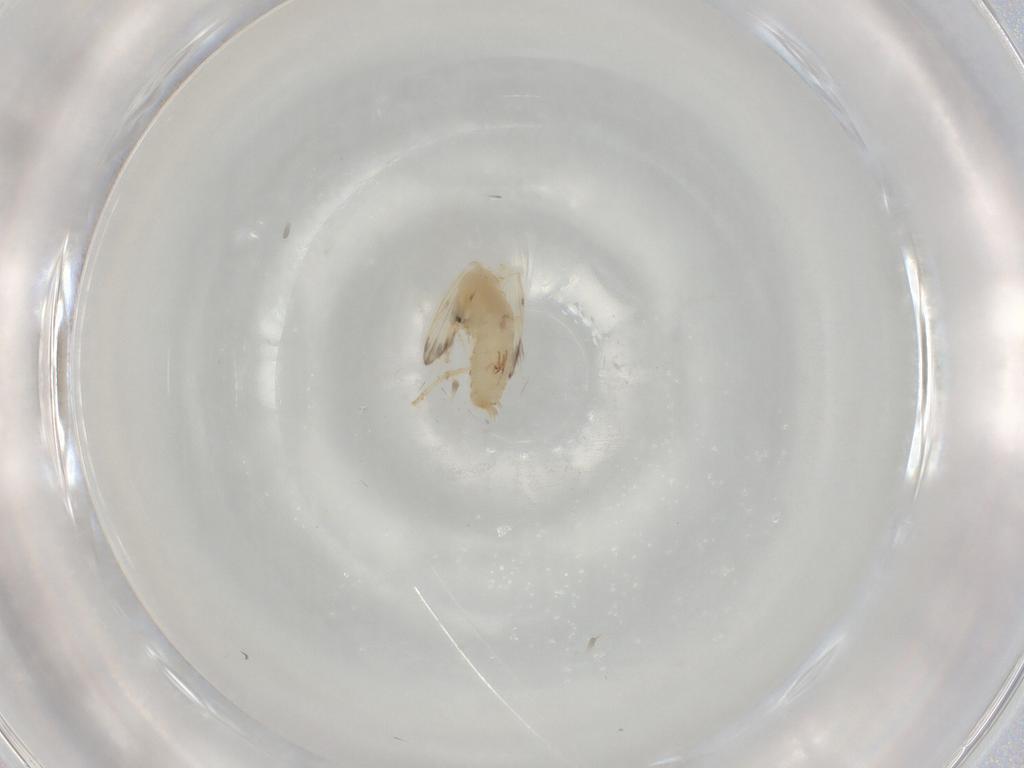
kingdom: Animalia
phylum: Arthropoda
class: Insecta
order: Diptera
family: Psychodidae
